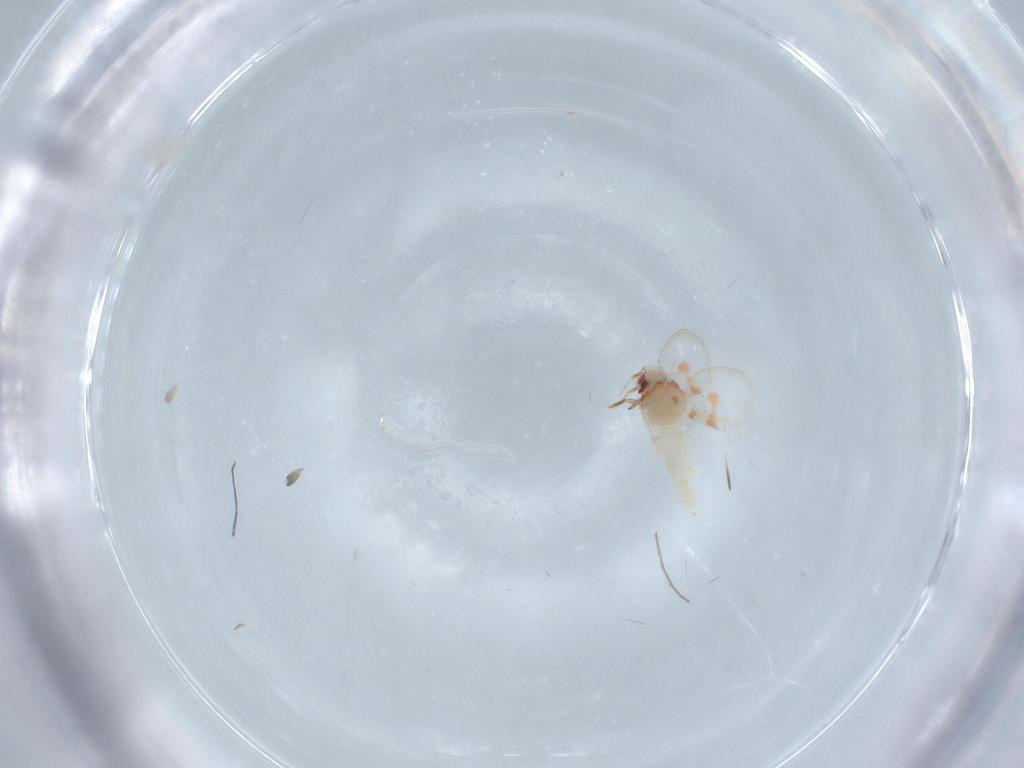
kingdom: Animalia
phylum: Arthropoda
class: Insecta
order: Hemiptera
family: Aleyrodidae
